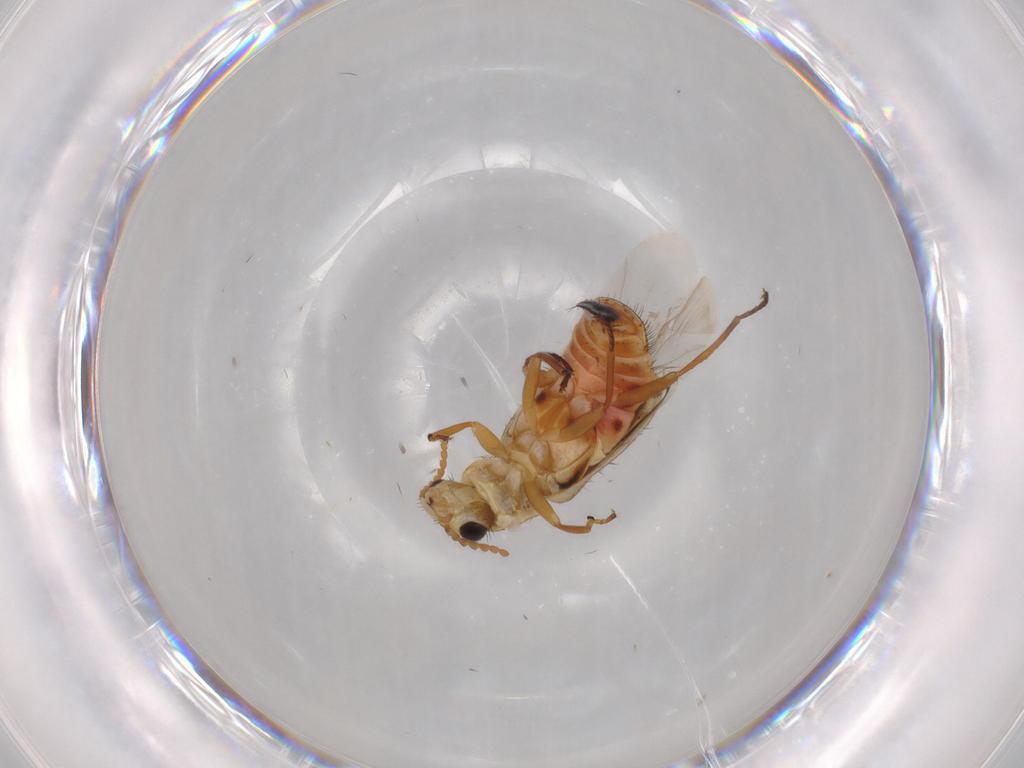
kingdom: Animalia
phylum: Arthropoda
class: Insecta
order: Coleoptera
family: Melyridae
